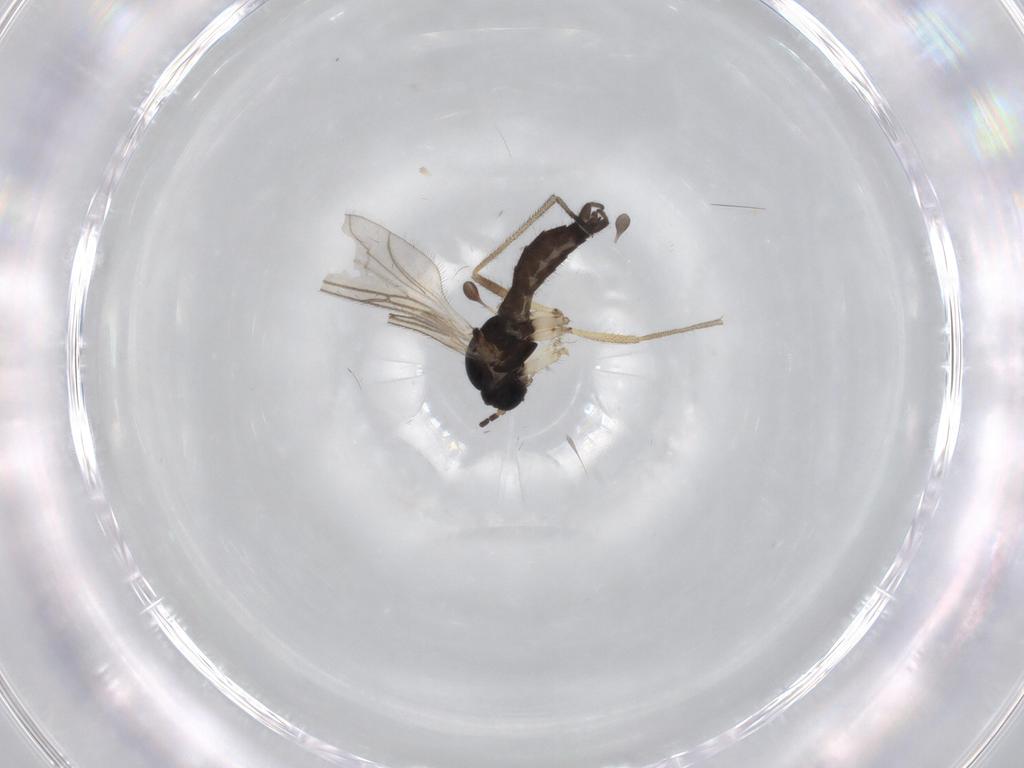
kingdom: Animalia
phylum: Arthropoda
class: Insecta
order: Diptera
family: Sciaridae
